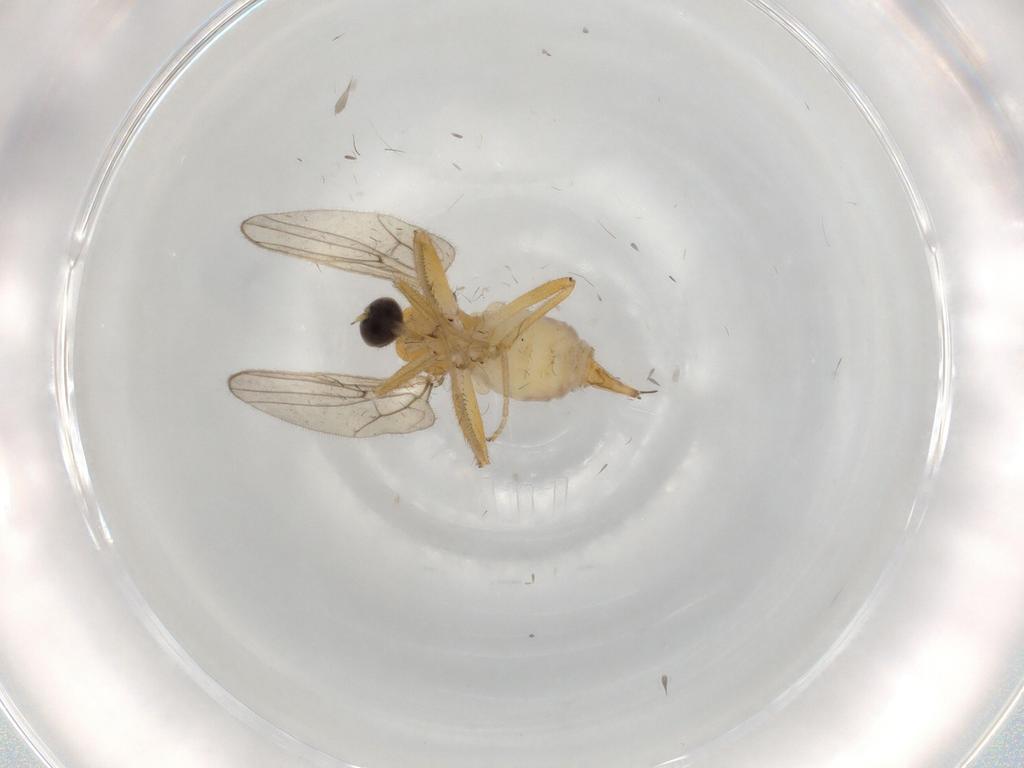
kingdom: Animalia
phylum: Arthropoda
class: Insecta
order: Diptera
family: Hybotidae
